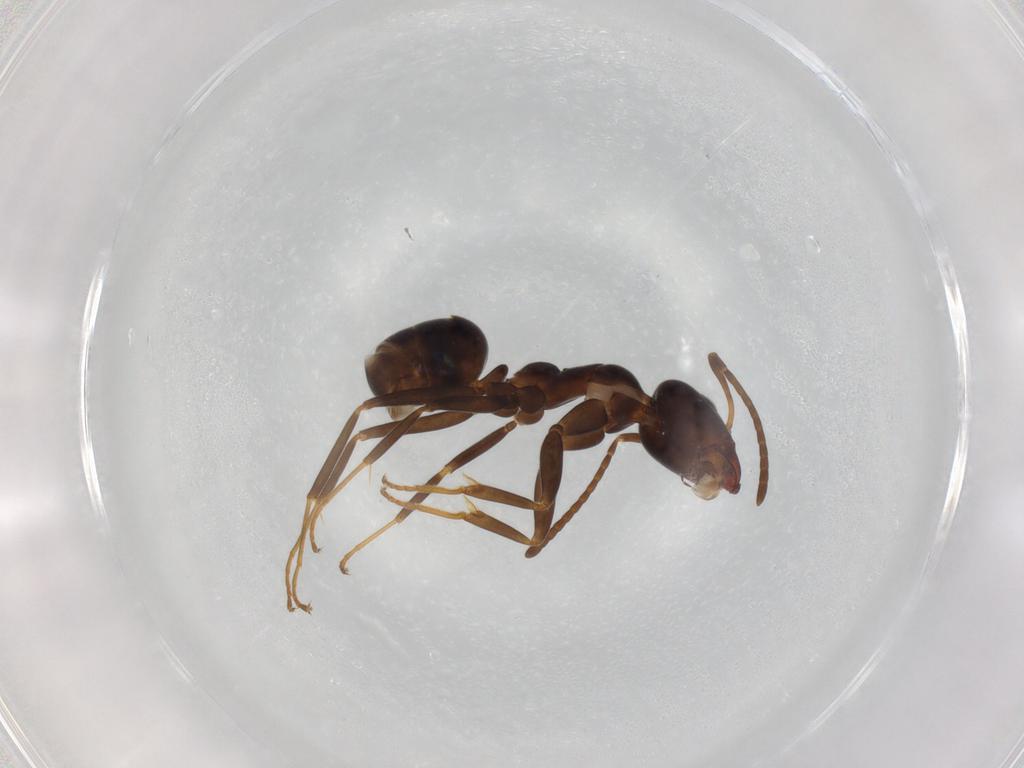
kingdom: Animalia
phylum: Arthropoda
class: Insecta
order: Hymenoptera
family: Formicidae
